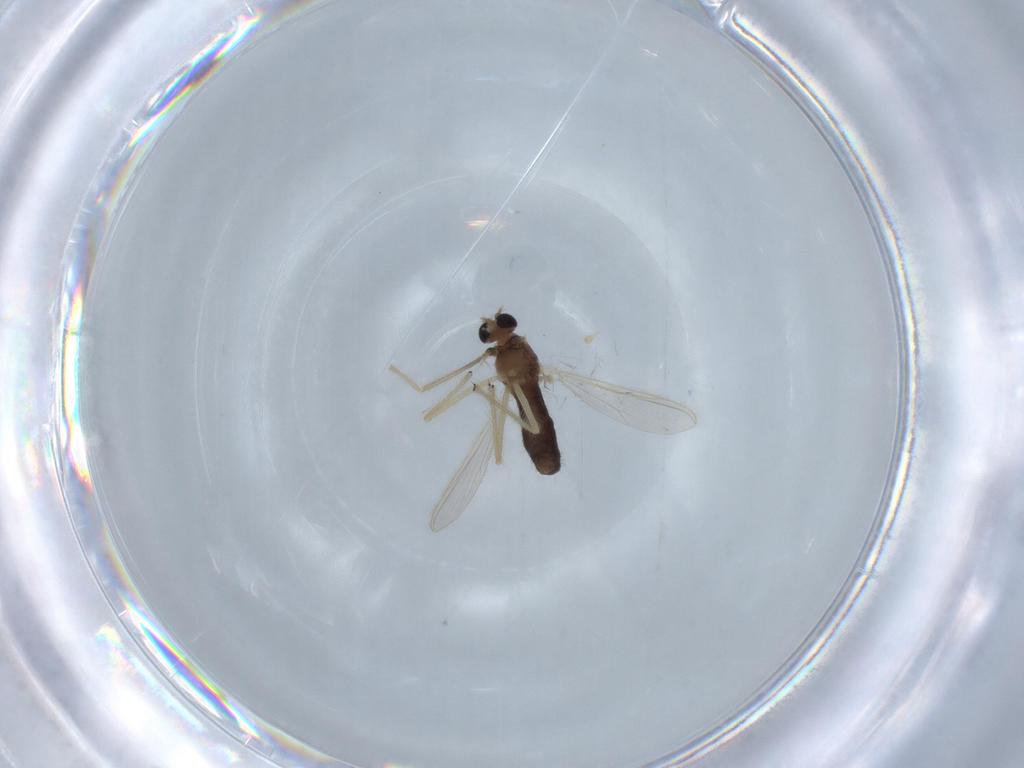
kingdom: Animalia
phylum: Arthropoda
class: Insecta
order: Diptera
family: Chironomidae
